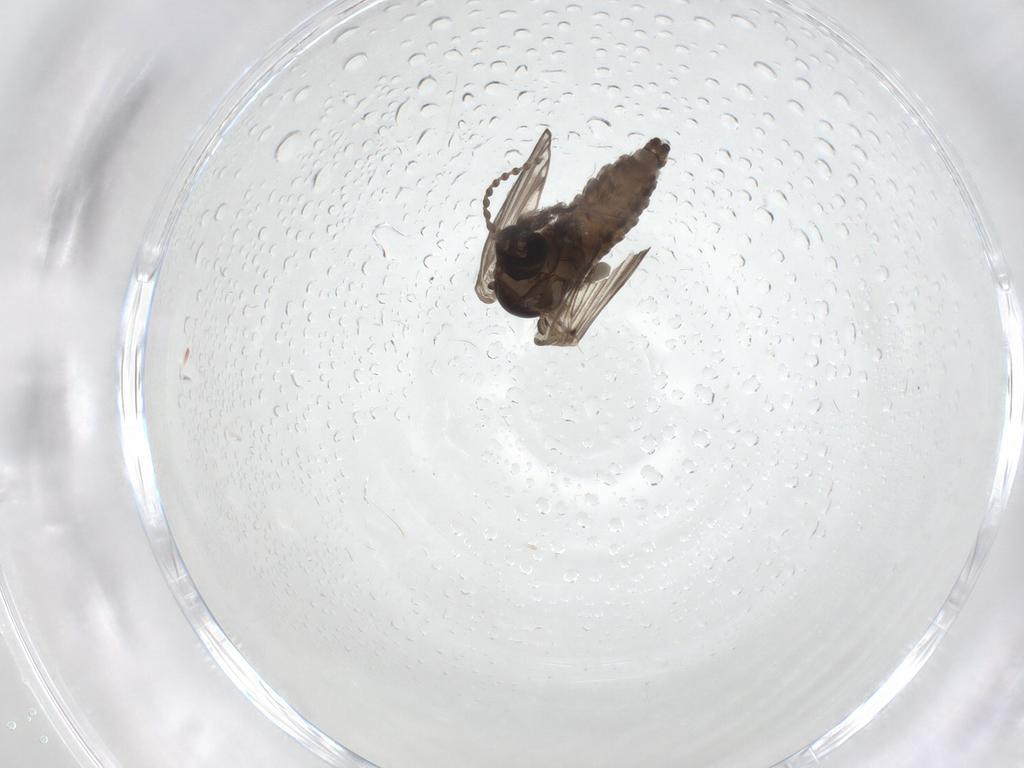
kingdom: Animalia
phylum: Arthropoda
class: Insecta
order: Diptera
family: Psychodidae
